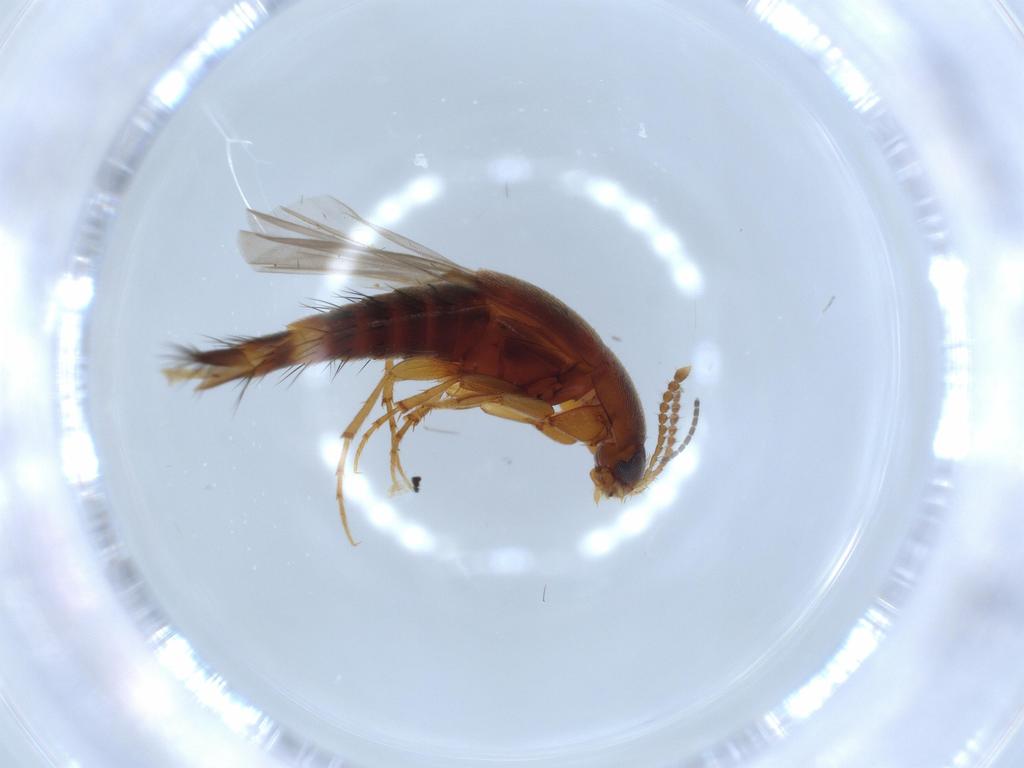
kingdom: Animalia
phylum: Arthropoda
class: Insecta
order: Coleoptera
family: Staphylinidae
